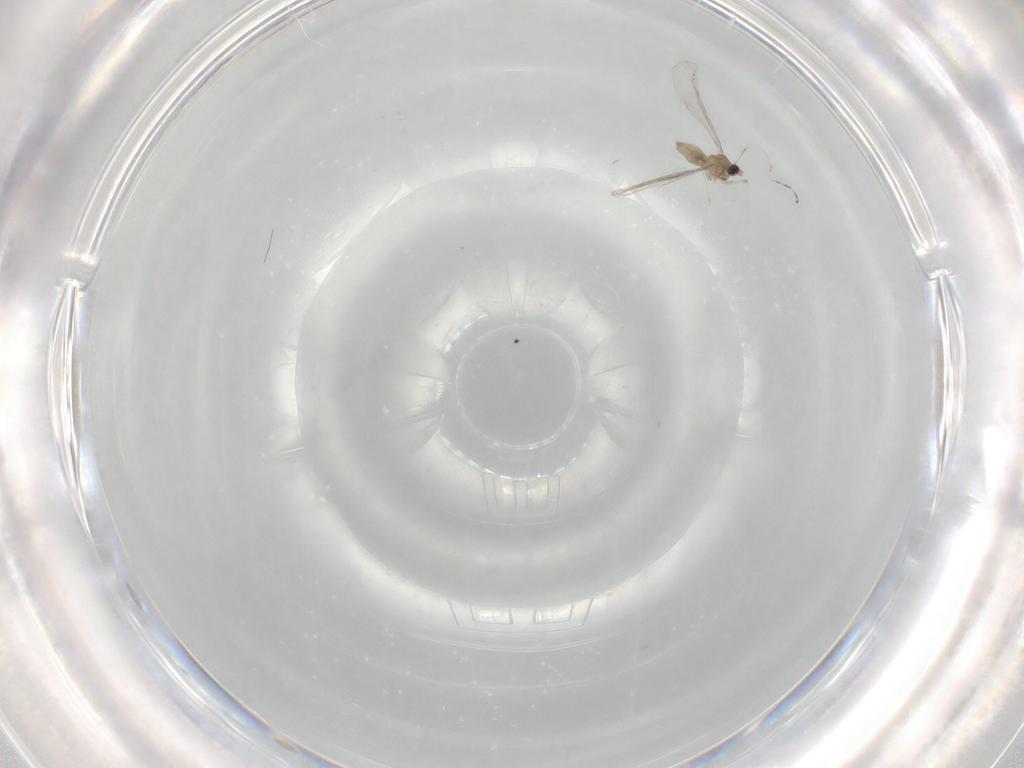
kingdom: Animalia
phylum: Arthropoda
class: Insecta
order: Diptera
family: Cecidomyiidae
